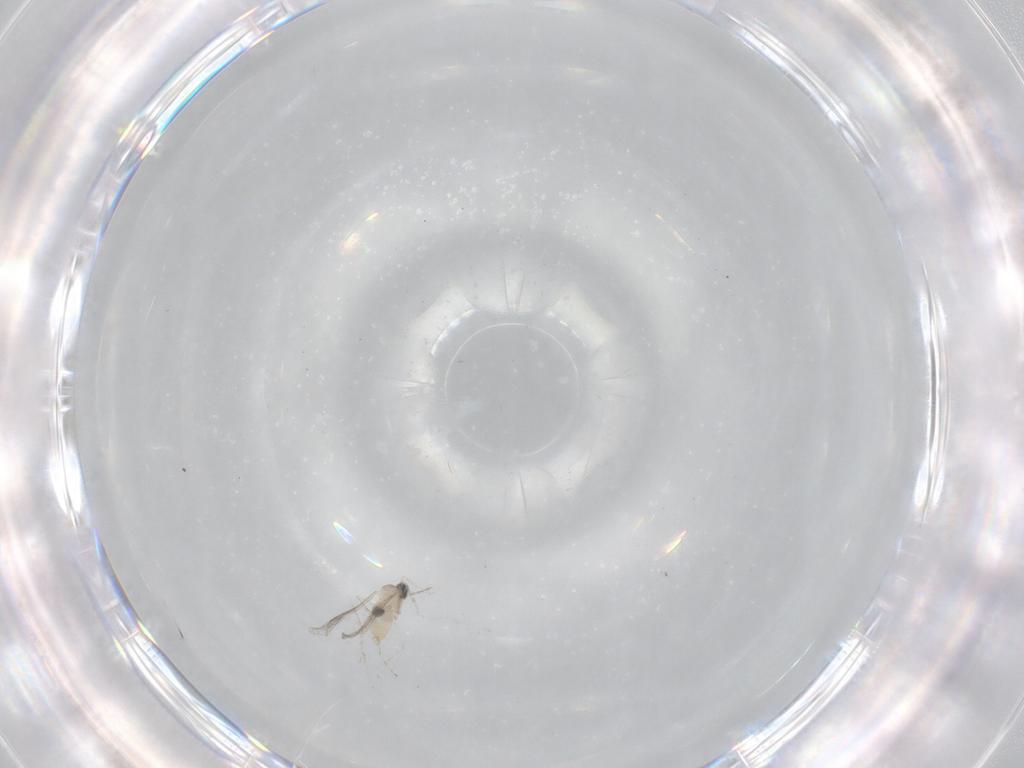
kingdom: Animalia
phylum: Arthropoda
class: Insecta
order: Diptera
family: Cecidomyiidae
